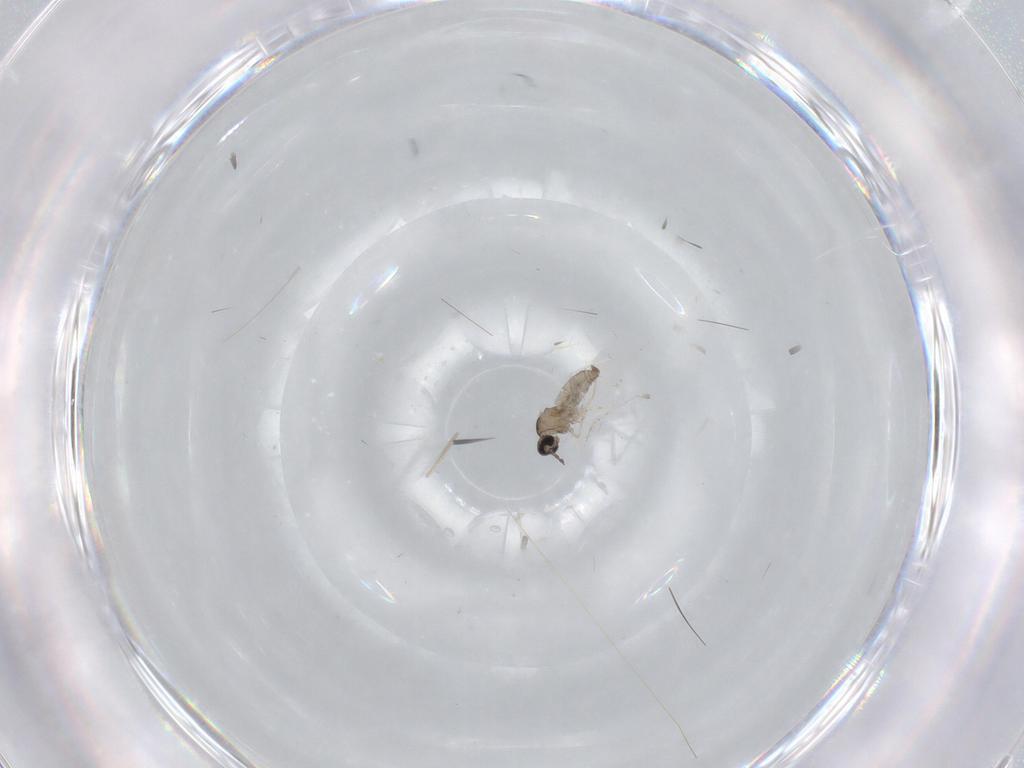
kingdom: Animalia
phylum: Arthropoda
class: Insecta
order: Diptera
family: Cecidomyiidae
